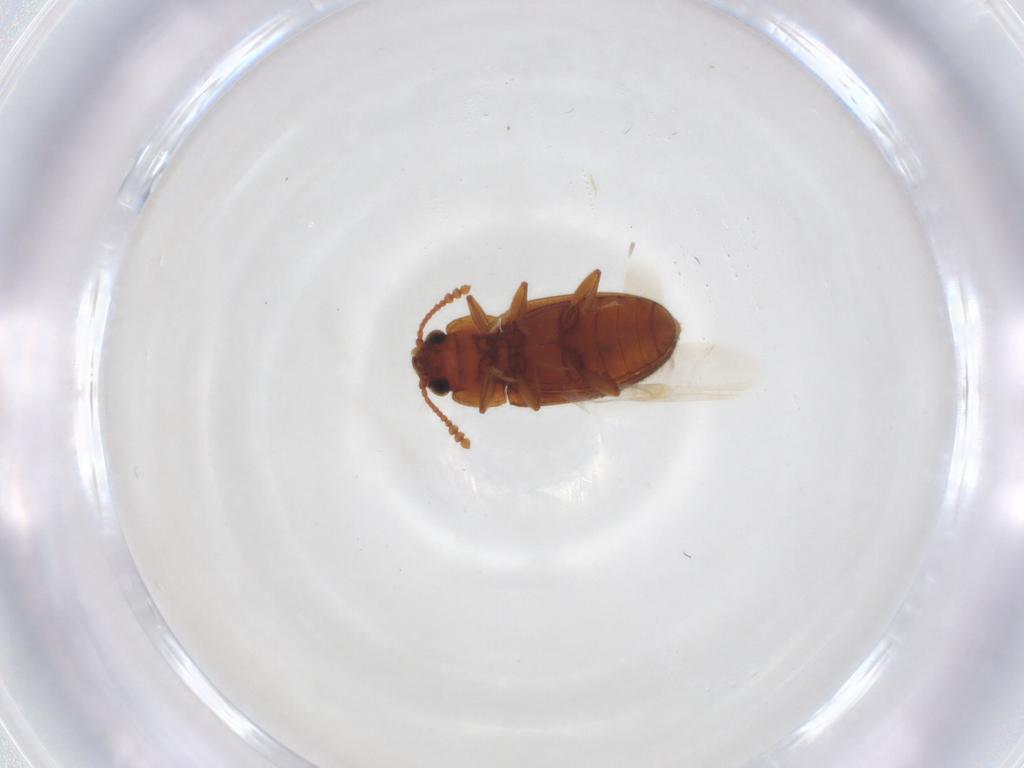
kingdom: Animalia
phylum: Arthropoda
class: Insecta
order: Coleoptera
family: Erotylidae
